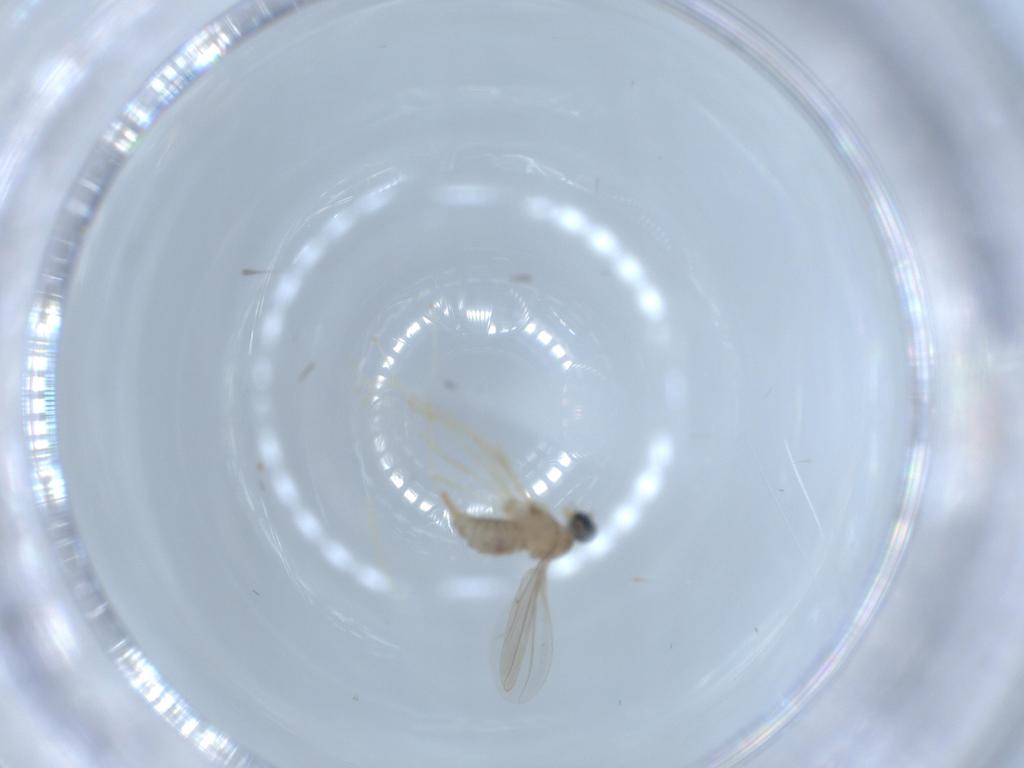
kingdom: Animalia
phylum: Arthropoda
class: Insecta
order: Diptera
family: Cecidomyiidae
